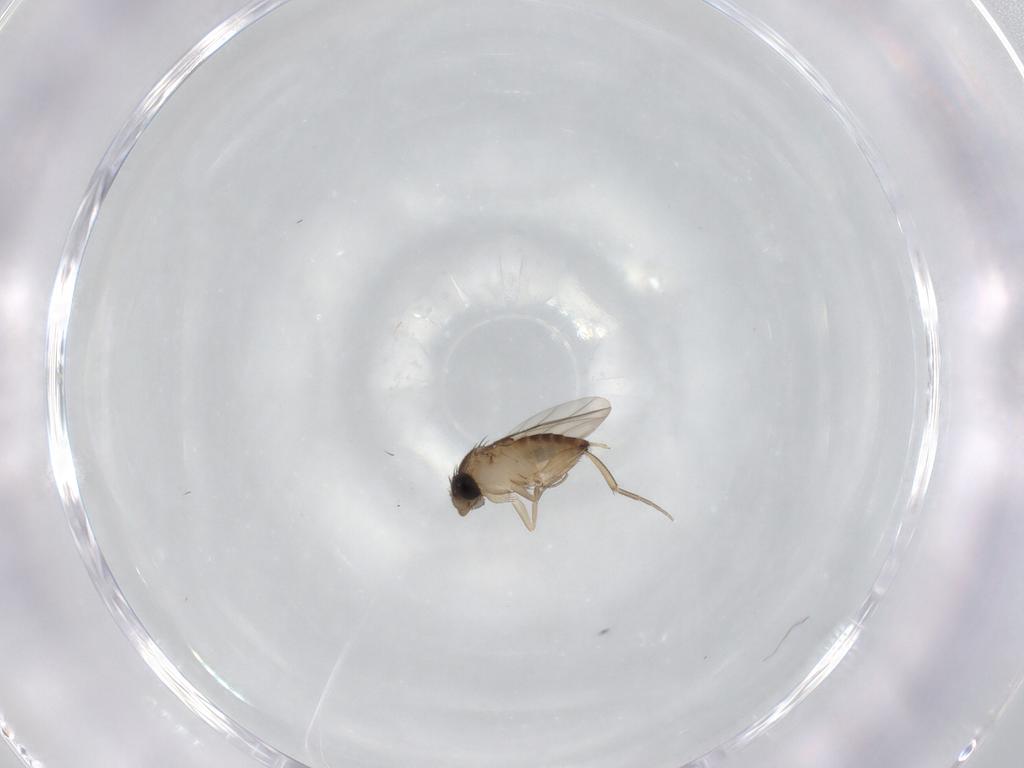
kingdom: Animalia
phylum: Arthropoda
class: Insecta
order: Diptera
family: Phoridae
